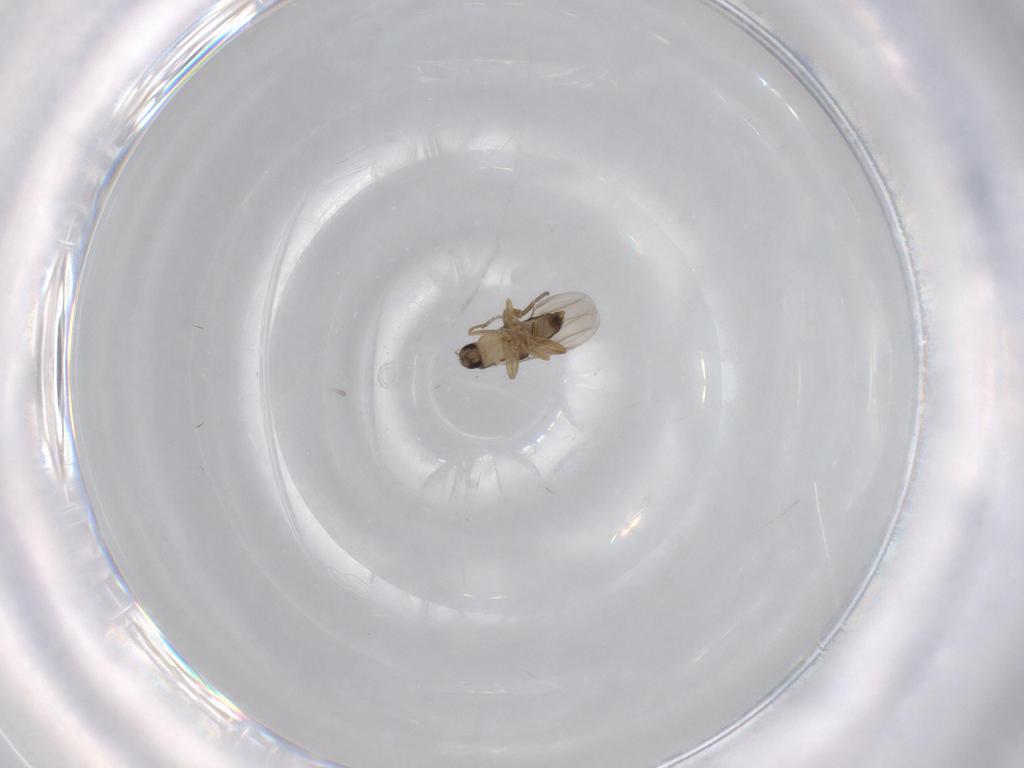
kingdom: Animalia
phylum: Arthropoda
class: Insecta
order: Diptera
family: Phoridae
